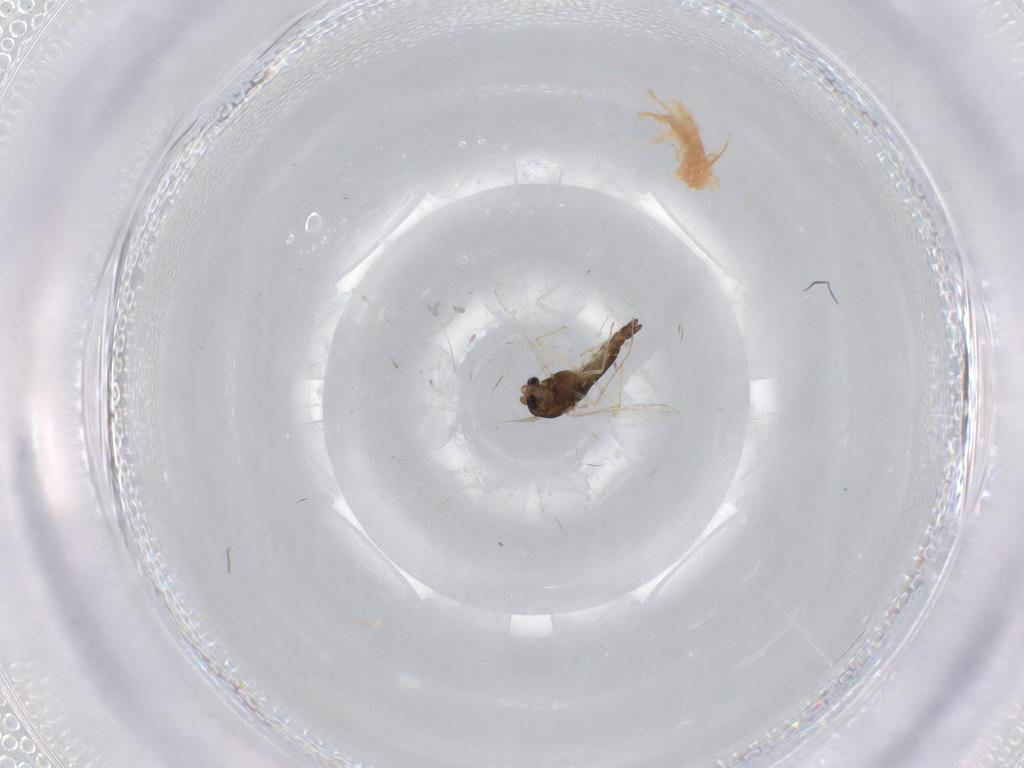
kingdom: Animalia
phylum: Arthropoda
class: Insecta
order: Diptera
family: Chironomidae
